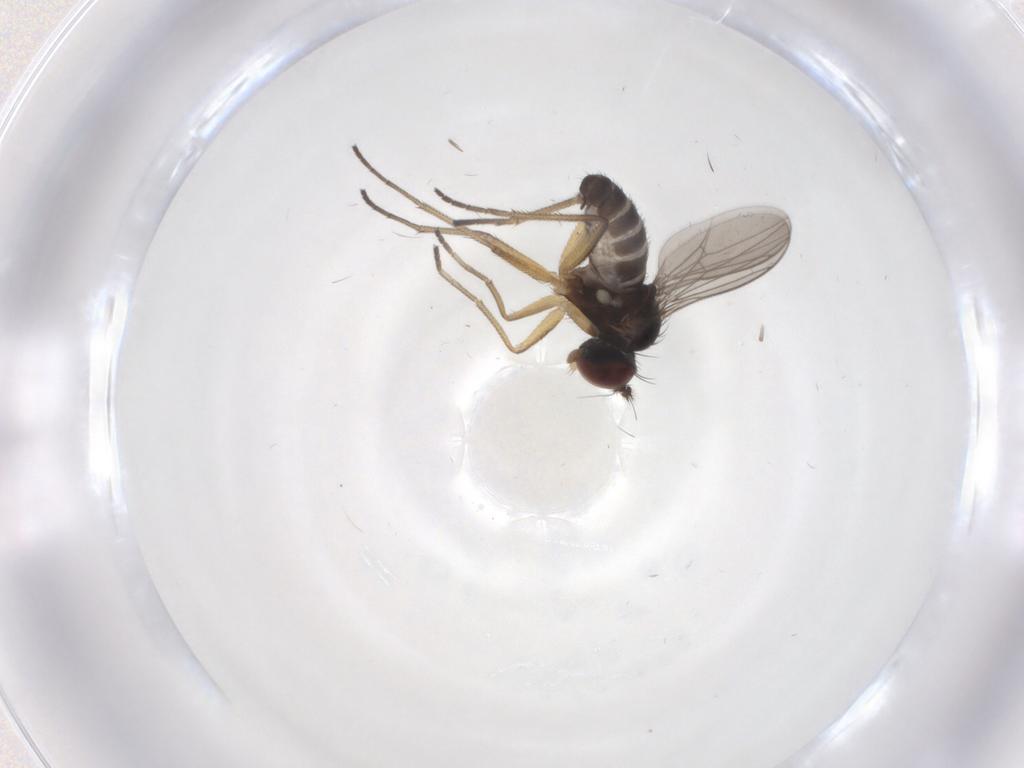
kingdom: Animalia
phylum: Arthropoda
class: Insecta
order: Diptera
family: Dolichopodidae
